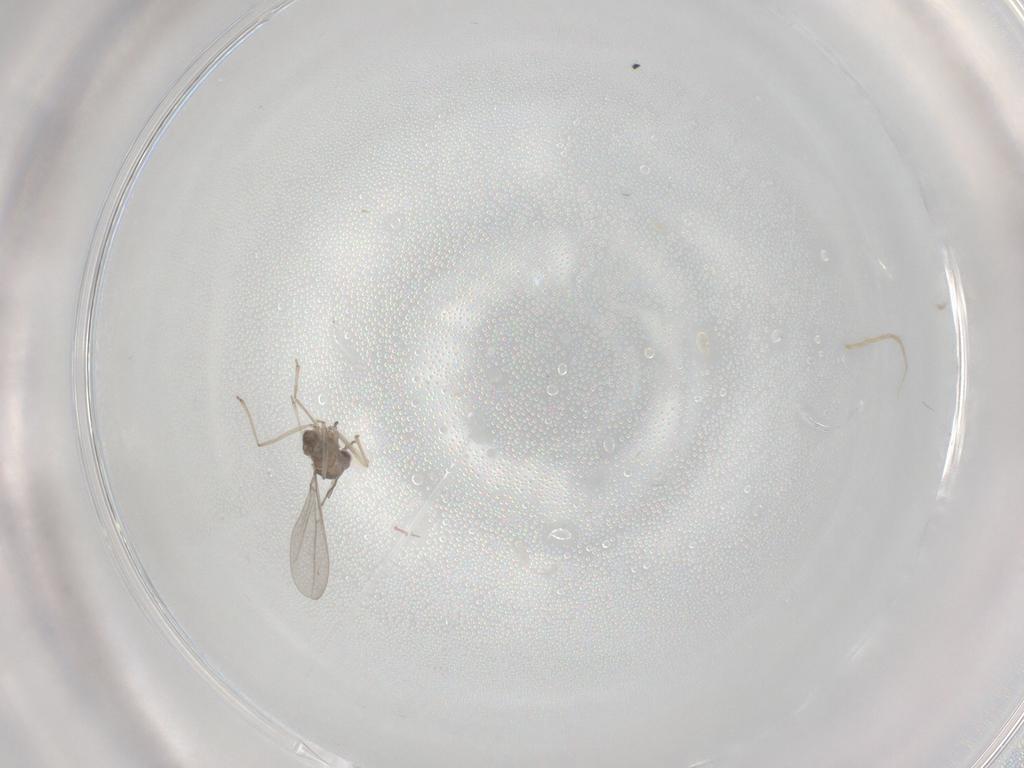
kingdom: Animalia
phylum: Arthropoda
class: Insecta
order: Diptera
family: Cecidomyiidae
